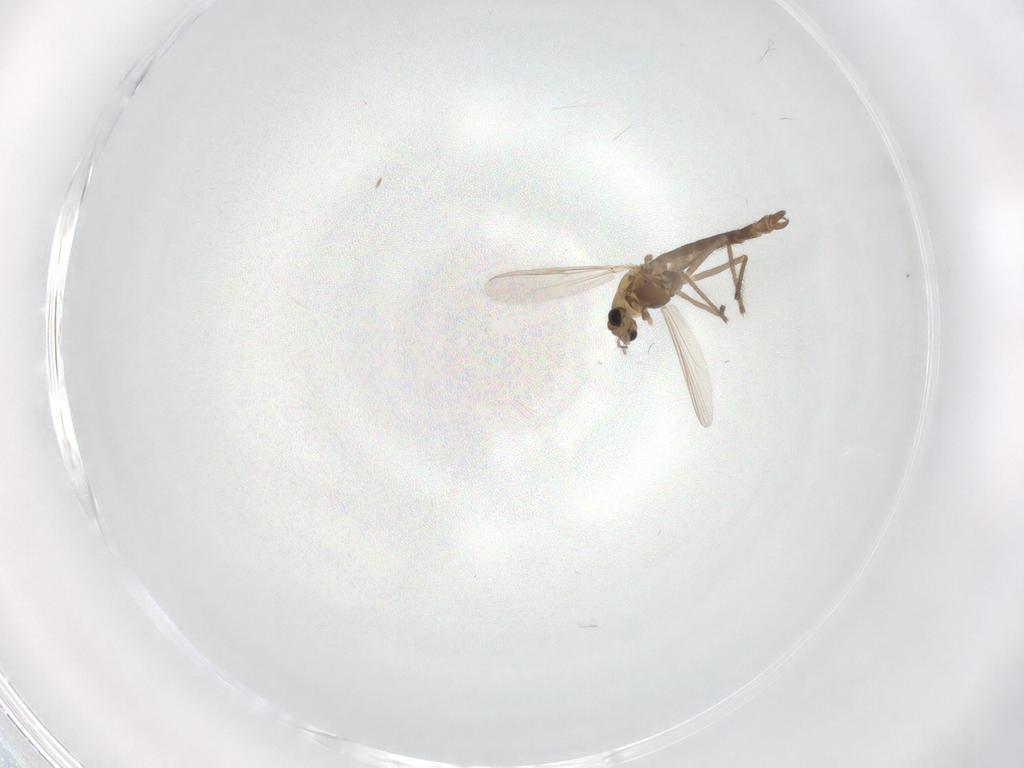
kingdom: Animalia
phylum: Arthropoda
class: Insecta
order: Diptera
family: Chironomidae
